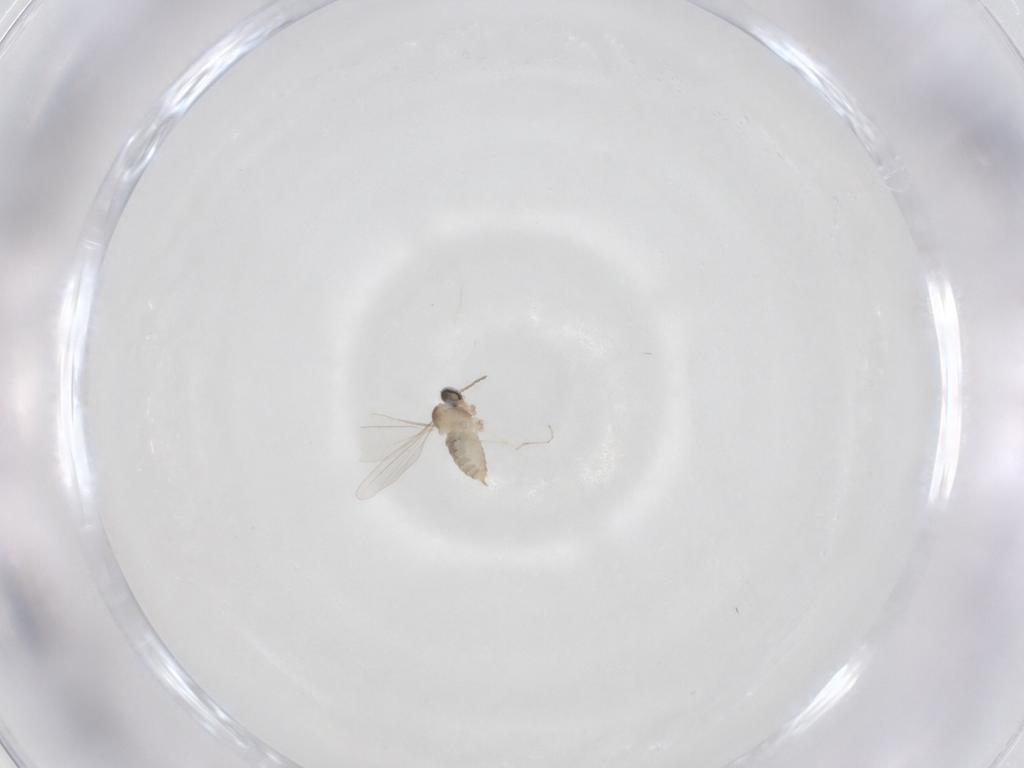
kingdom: Animalia
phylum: Arthropoda
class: Insecta
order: Diptera
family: Cecidomyiidae
